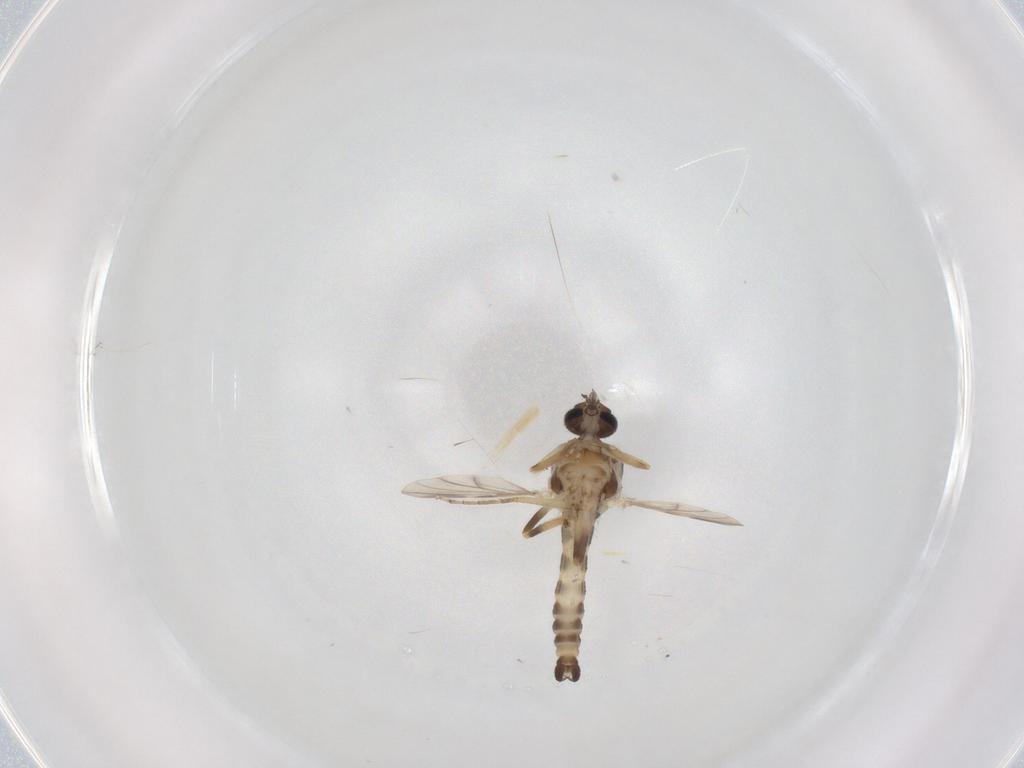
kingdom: Animalia
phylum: Arthropoda
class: Insecta
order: Diptera
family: Ceratopogonidae
